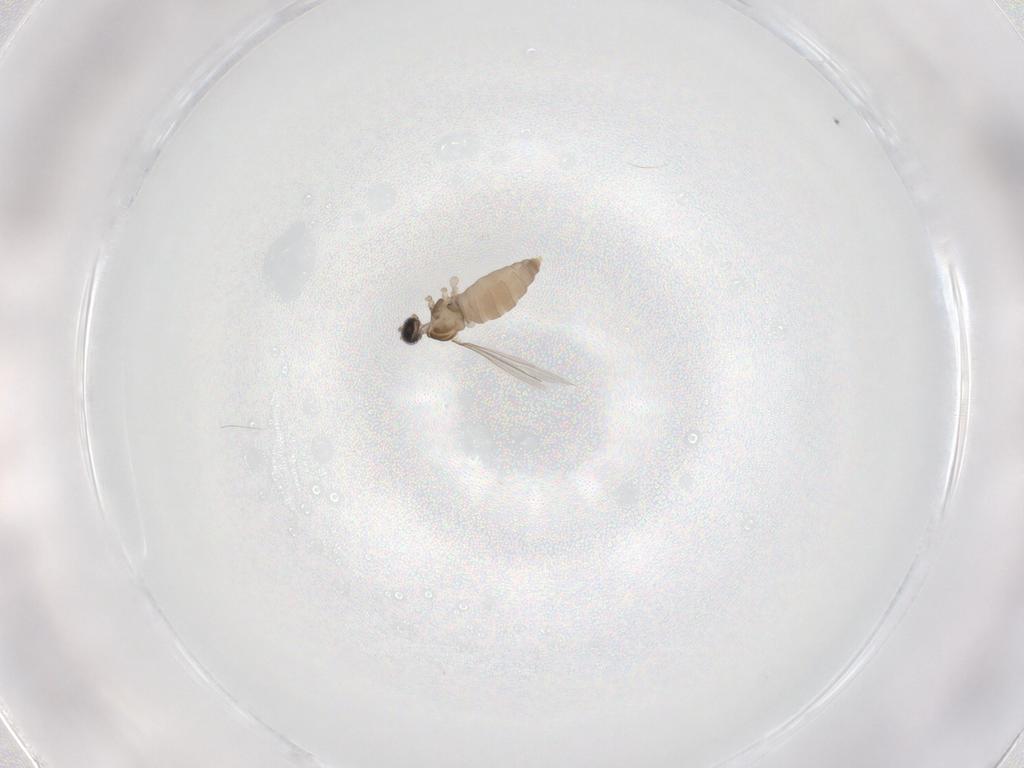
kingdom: Animalia
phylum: Arthropoda
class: Insecta
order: Diptera
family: Cecidomyiidae
